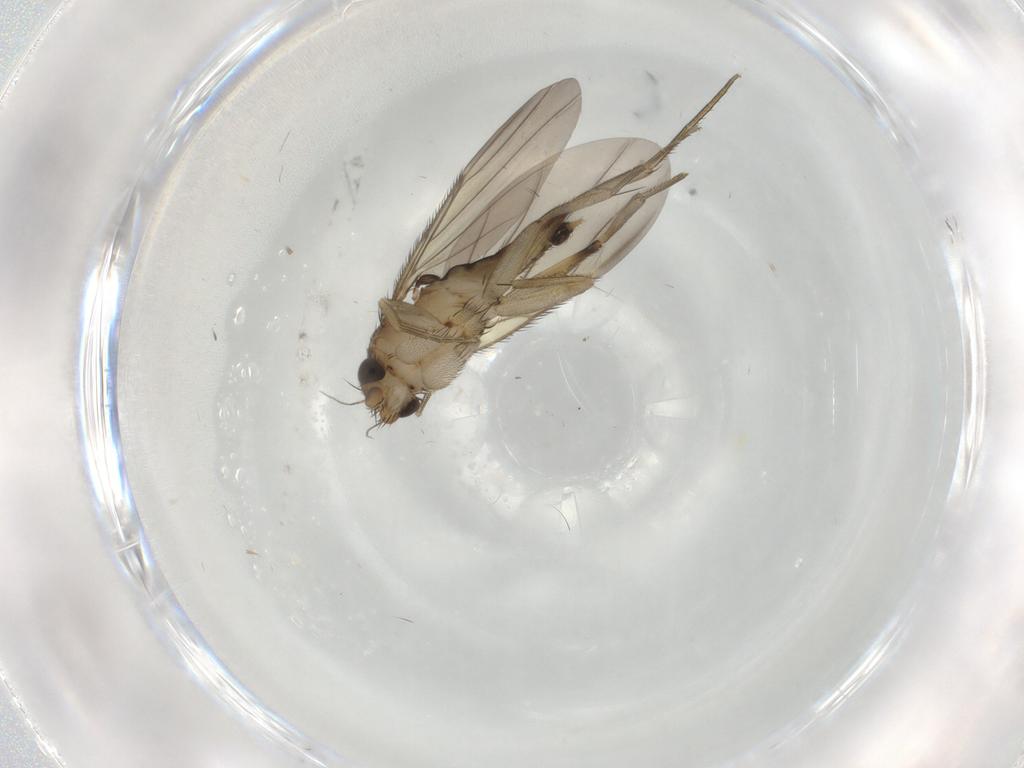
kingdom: Animalia
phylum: Arthropoda
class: Insecta
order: Diptera
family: Phoridae
